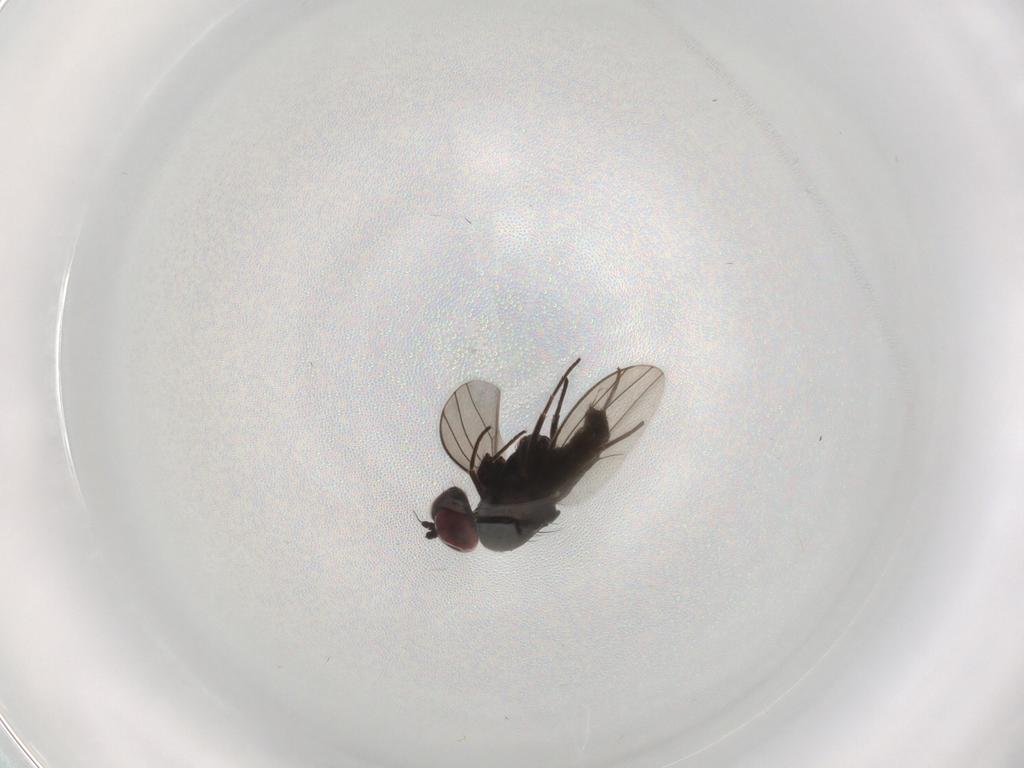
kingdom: Animalia
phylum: Arthropoda
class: Insecta
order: Diptera
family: Dolichopodidae
